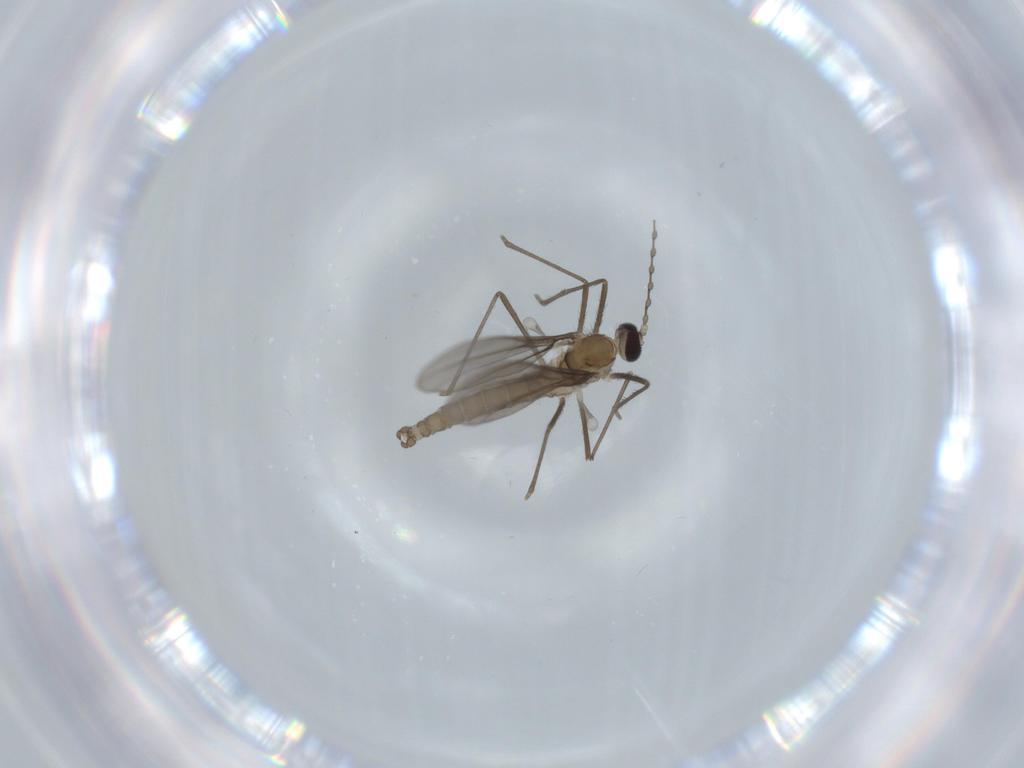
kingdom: Animalia
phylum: Arthropoda
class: Insecta
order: Diptera
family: Cecidomyiidae
